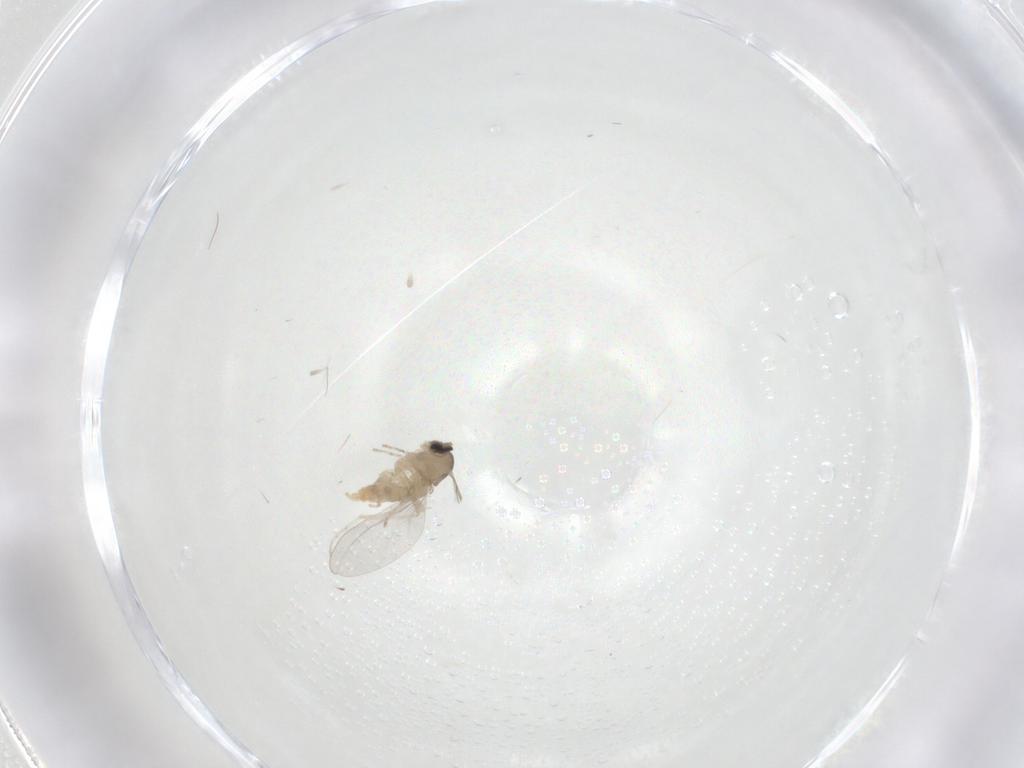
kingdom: Animalia
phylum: Arthropoda
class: Insecta
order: Diptera
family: Cecidomyiidae
